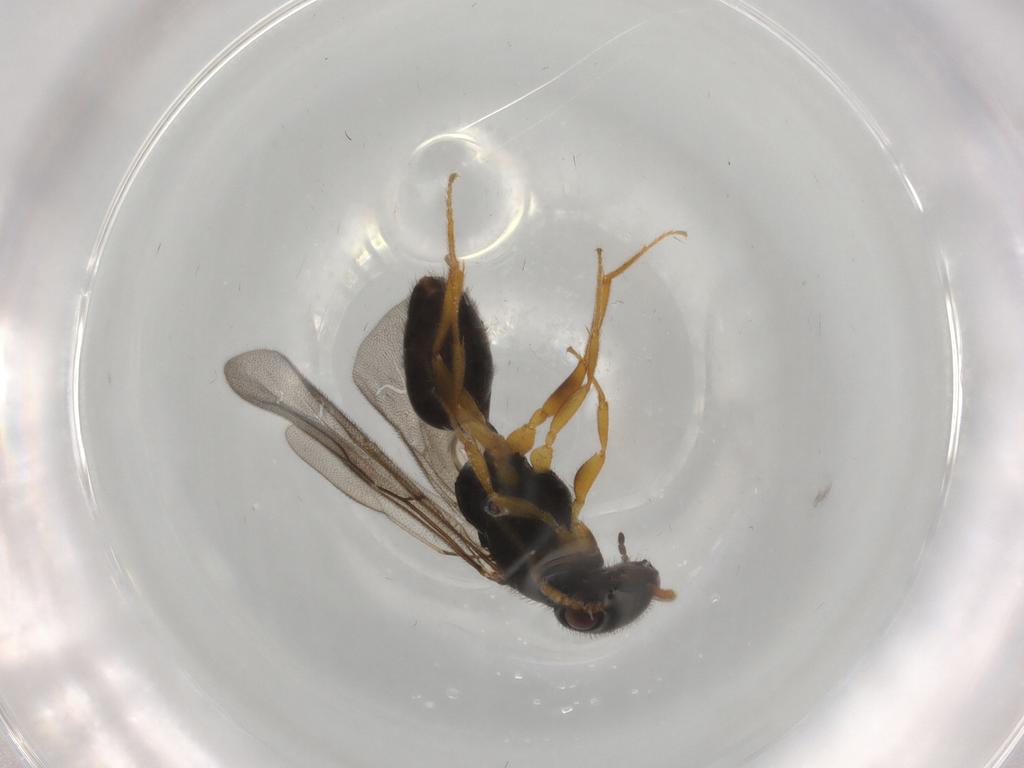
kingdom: Animalia
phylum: Arthropoda
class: Insecta
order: Hymenoptera
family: Bethylidae
